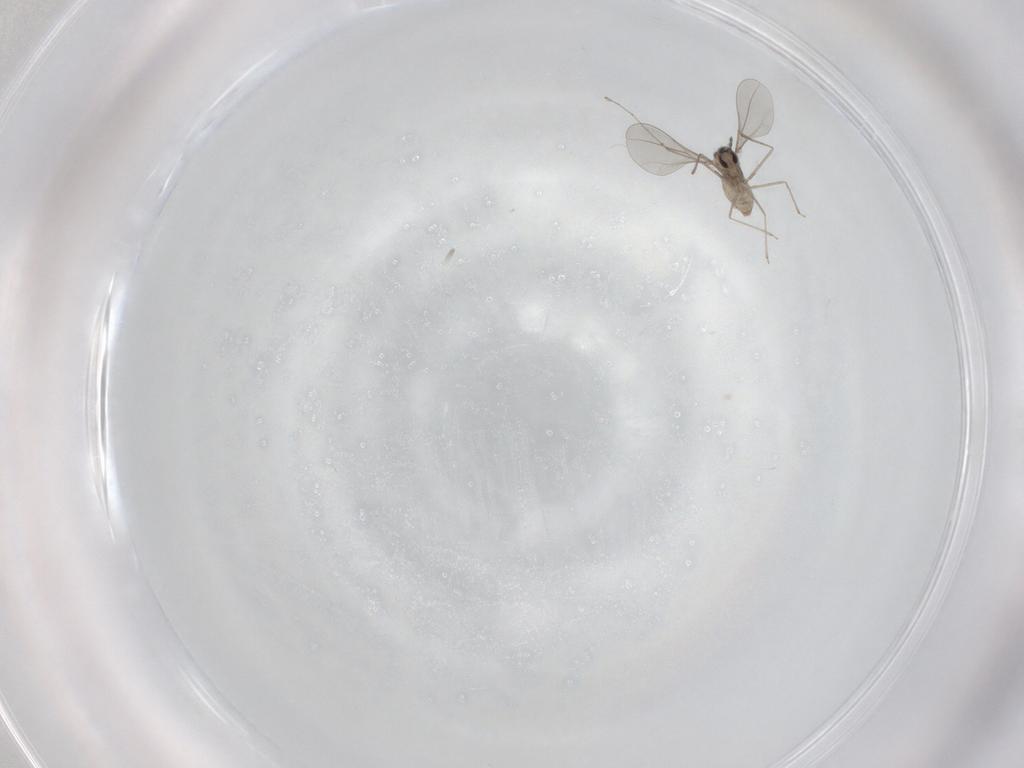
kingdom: Animalia
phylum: Arthropoda
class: Insecta
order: Diptera
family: Cecidomyiidae
